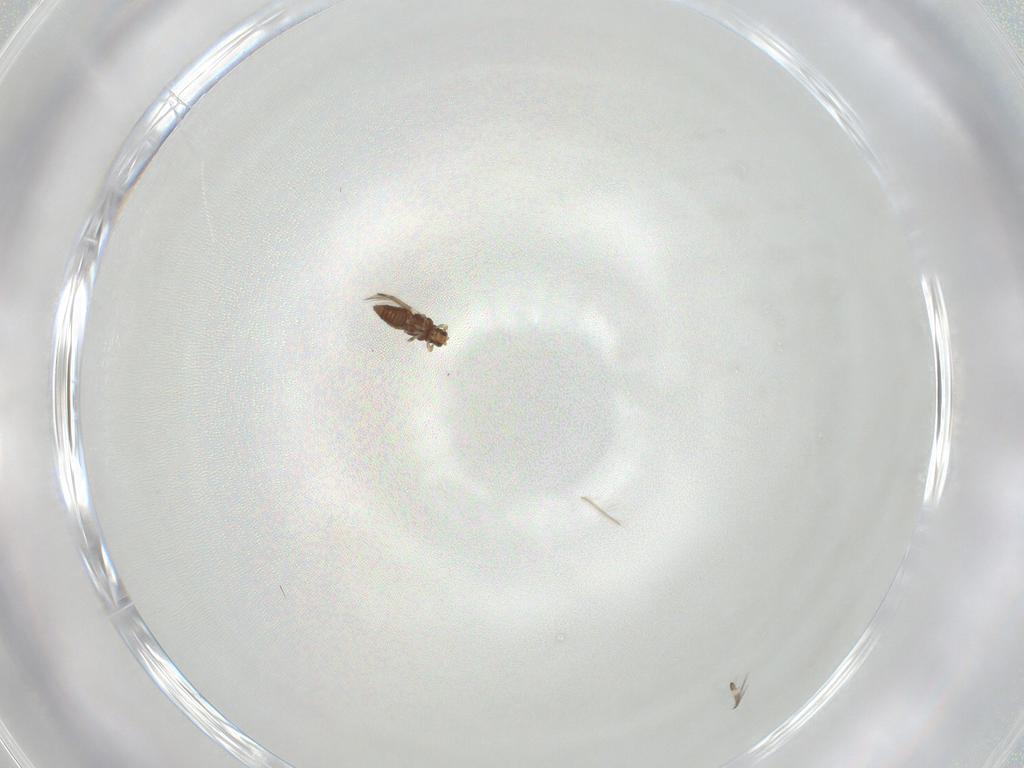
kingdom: Animalia
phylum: Arthropoda
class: Insecta
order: Thysanoptera
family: Thripidae
